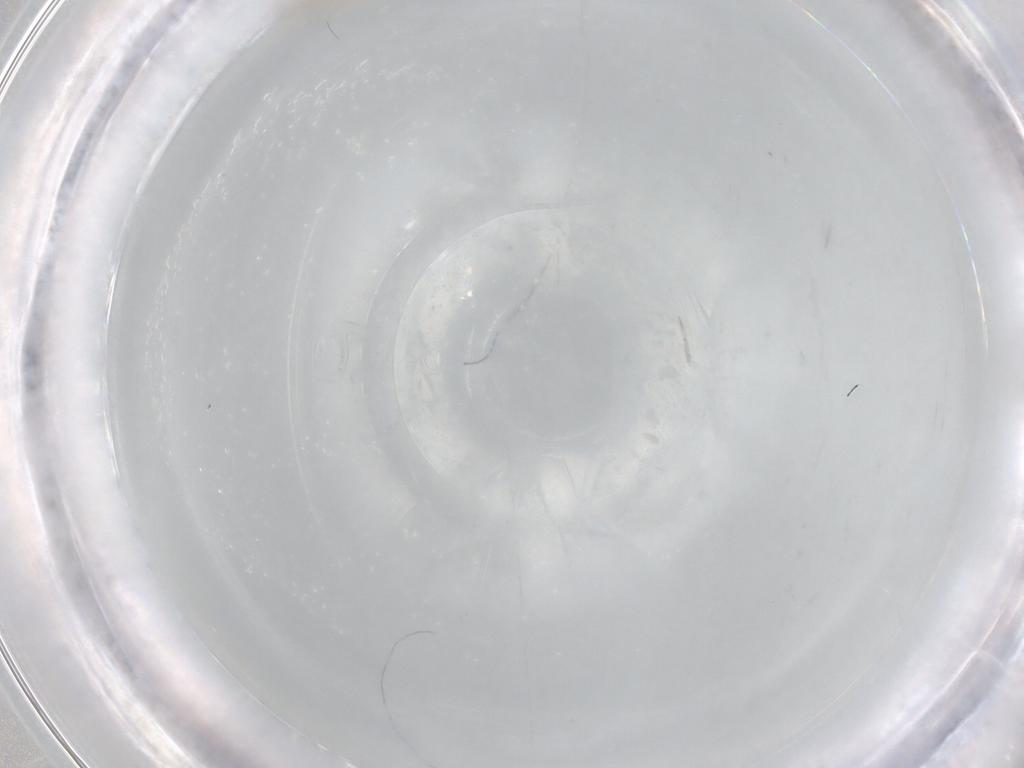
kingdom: Animalia
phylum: Arthropoda
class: Insecta
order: Psocodea
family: Pseudocaeciliidae
